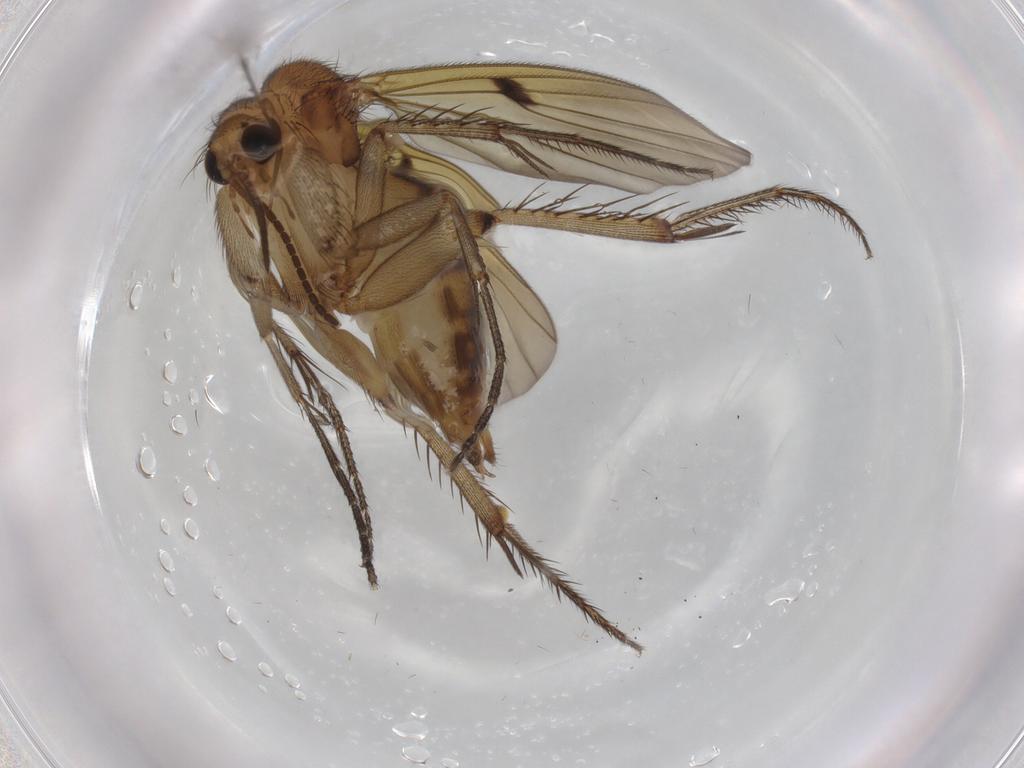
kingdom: Animalia
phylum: Arthropoda
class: Insecta
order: Diptera
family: Mycetophilidae
